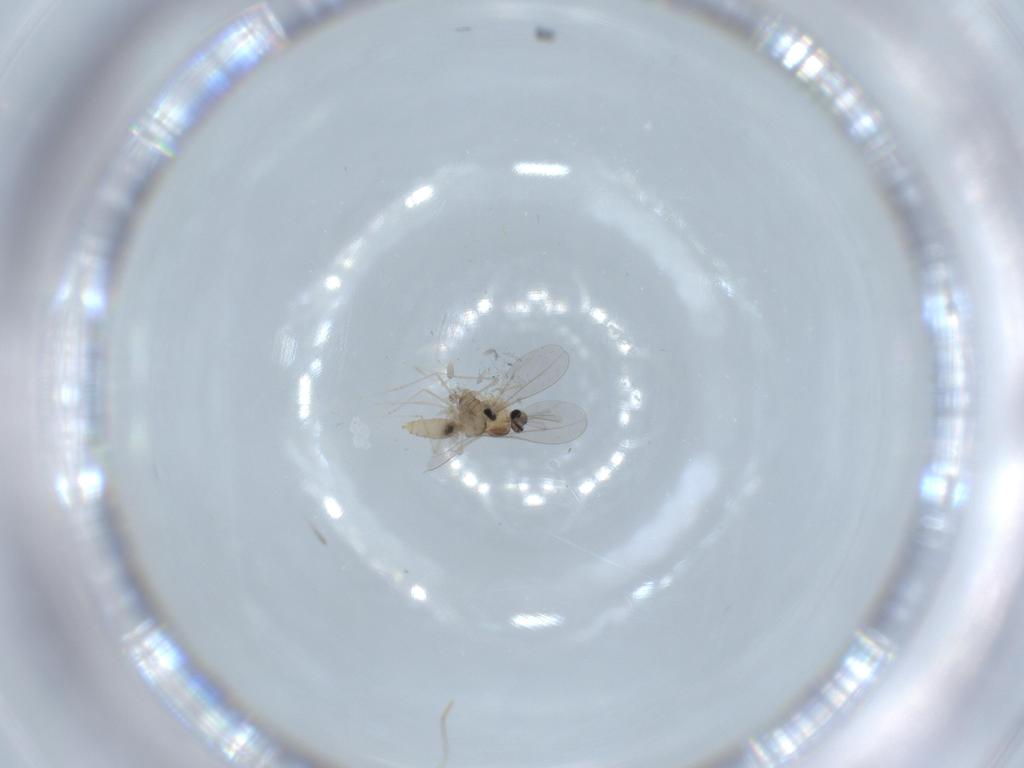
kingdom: Animalia
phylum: Arthropoda
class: Insecta
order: Diptera
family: Cecidomyiidae
